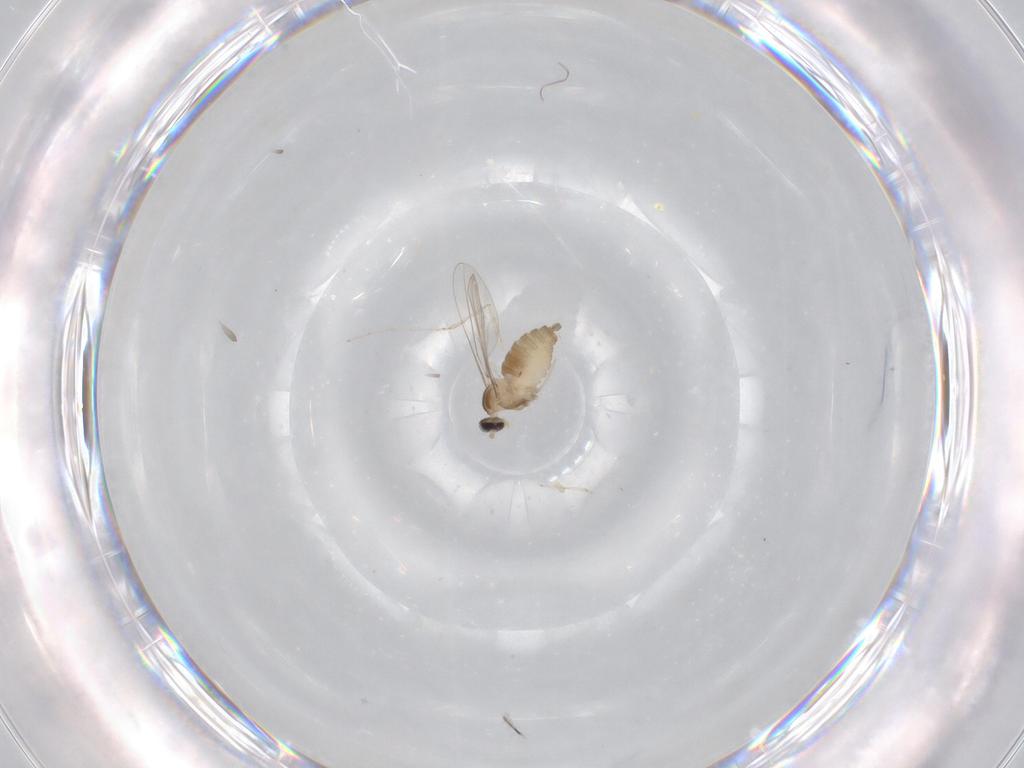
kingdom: Animalia
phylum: Arthropoda
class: Insecta
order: Diptera
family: Cecidomyiidae
